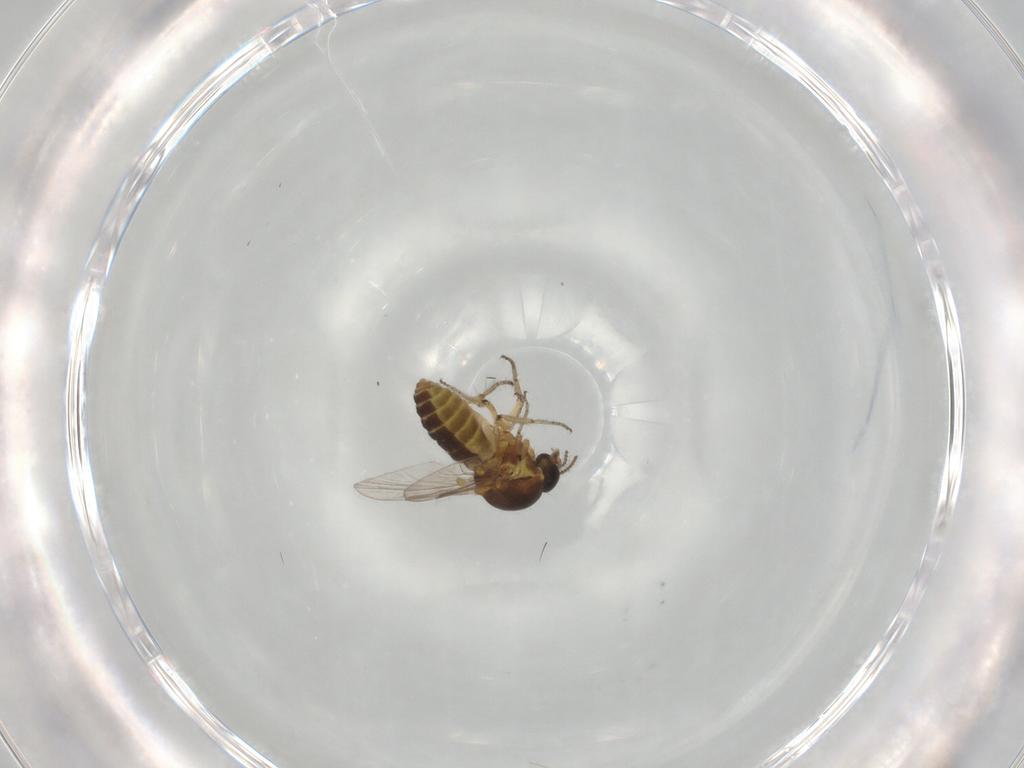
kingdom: Animalia
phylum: Arthropoda
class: Insecta
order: Diptera
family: Ceratopogonidae
